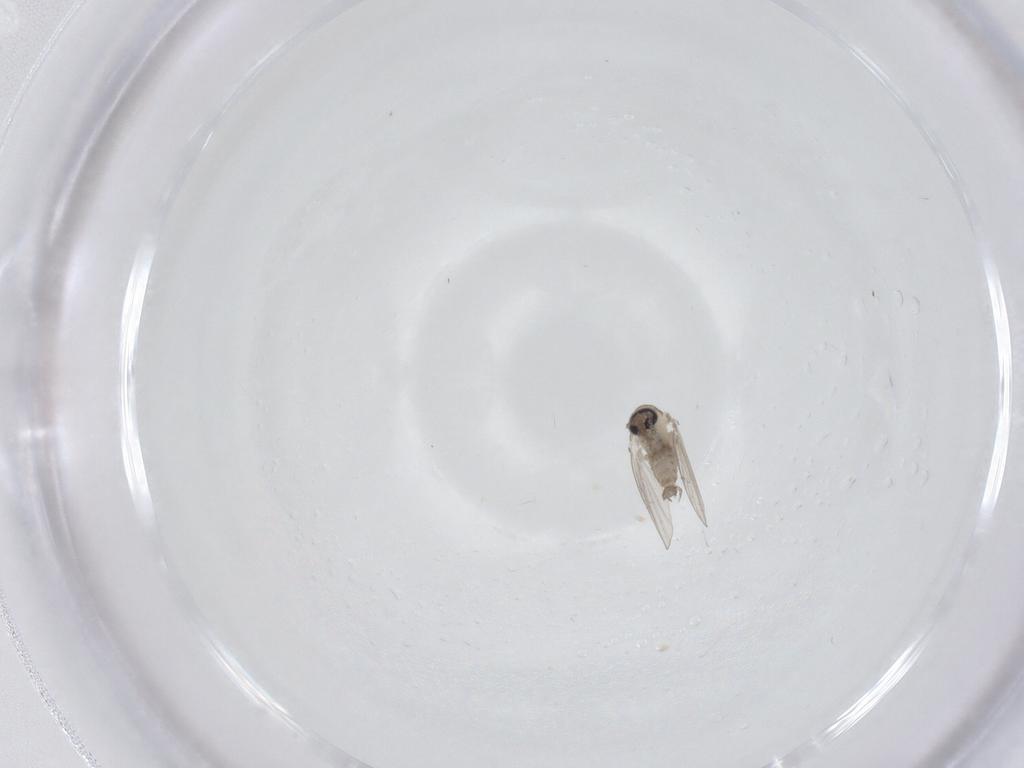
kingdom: Animalia
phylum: Arthropoda
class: Insecta
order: Diptera
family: Psychodidae
